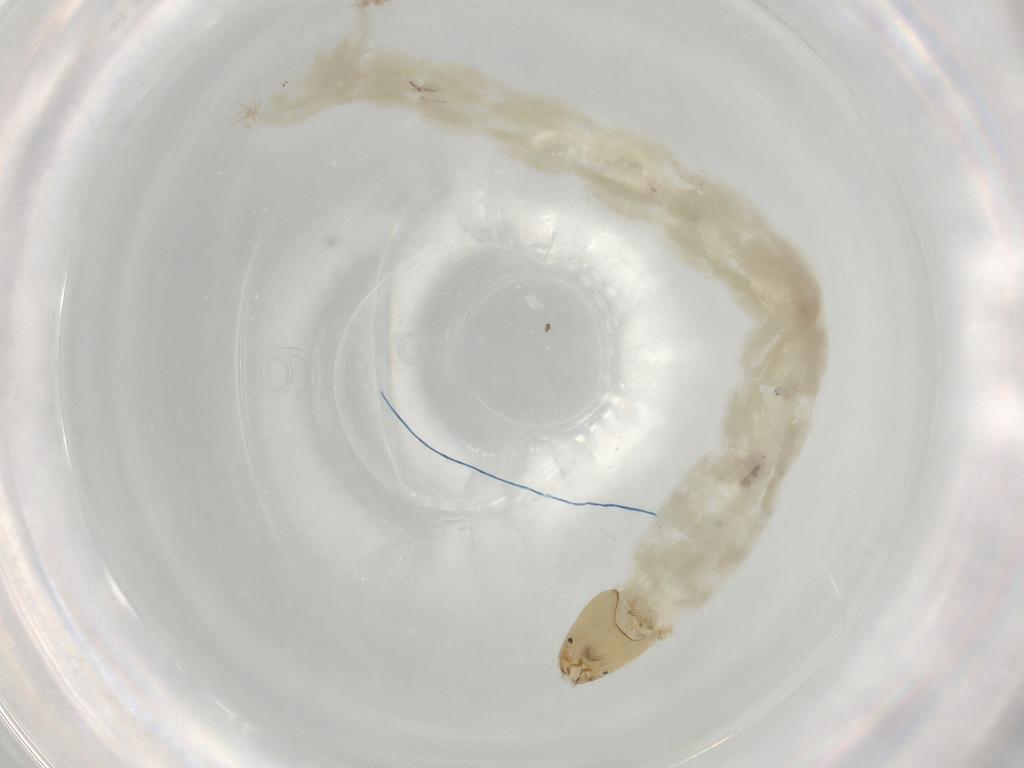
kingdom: Animalia
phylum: Arthropoda
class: Insecta
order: Diptera
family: Chironomidae
